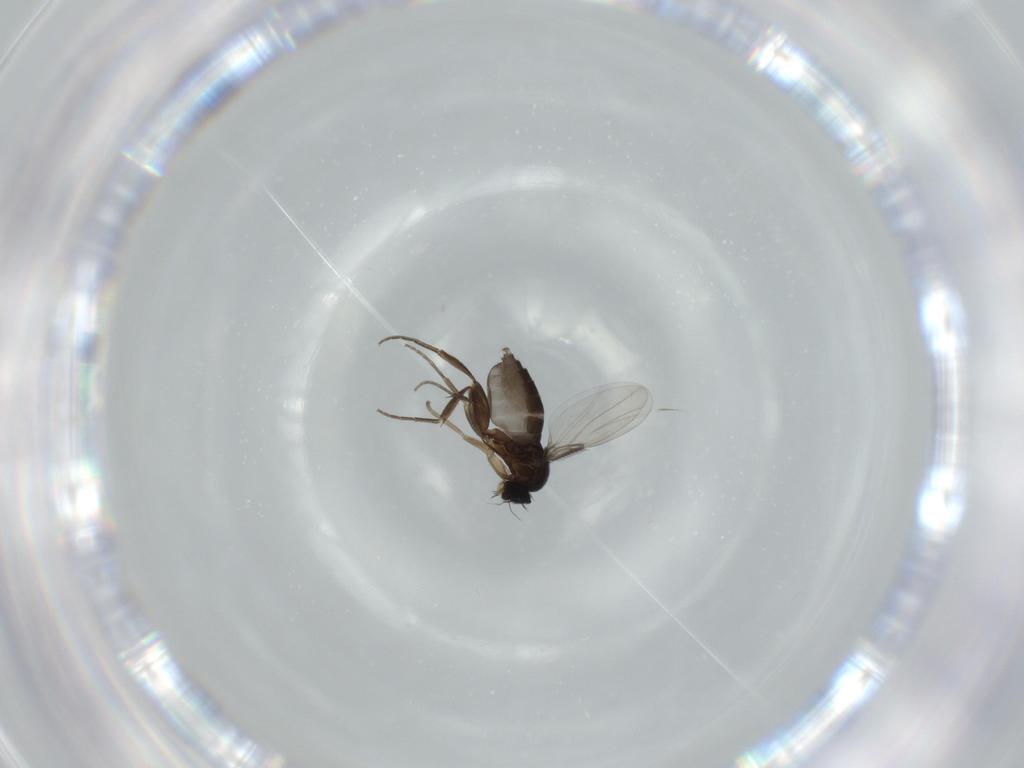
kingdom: Animalia
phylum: Arthropoda
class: Insecta
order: Diptera
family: Phoridae
